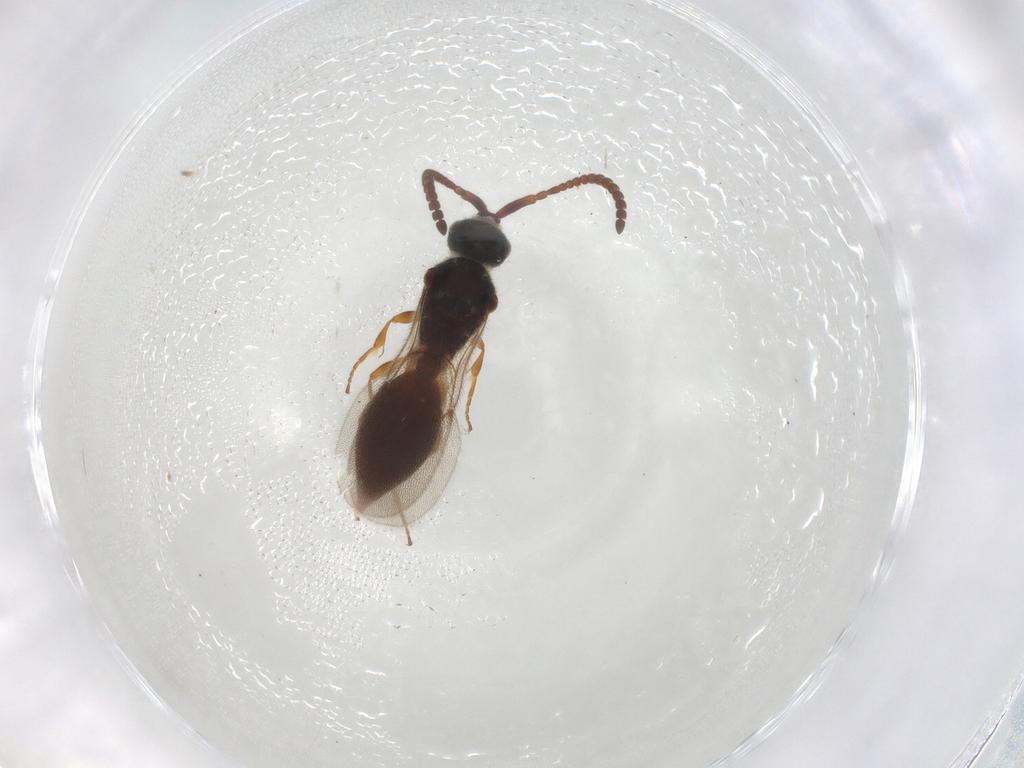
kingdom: Animalia
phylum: Arthropoda
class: Insecta
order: Hymenoptera
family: Diapriidae
